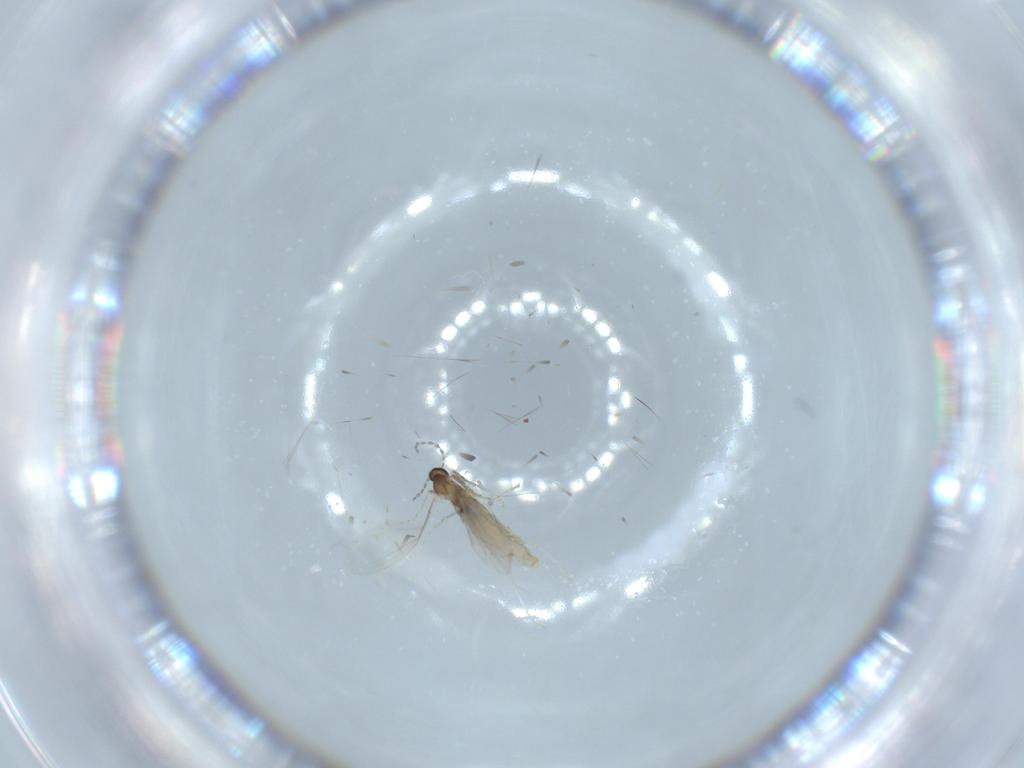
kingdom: Animalia
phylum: Arthropoda
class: Insecta
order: Diptera
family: Cecidomyiidae
